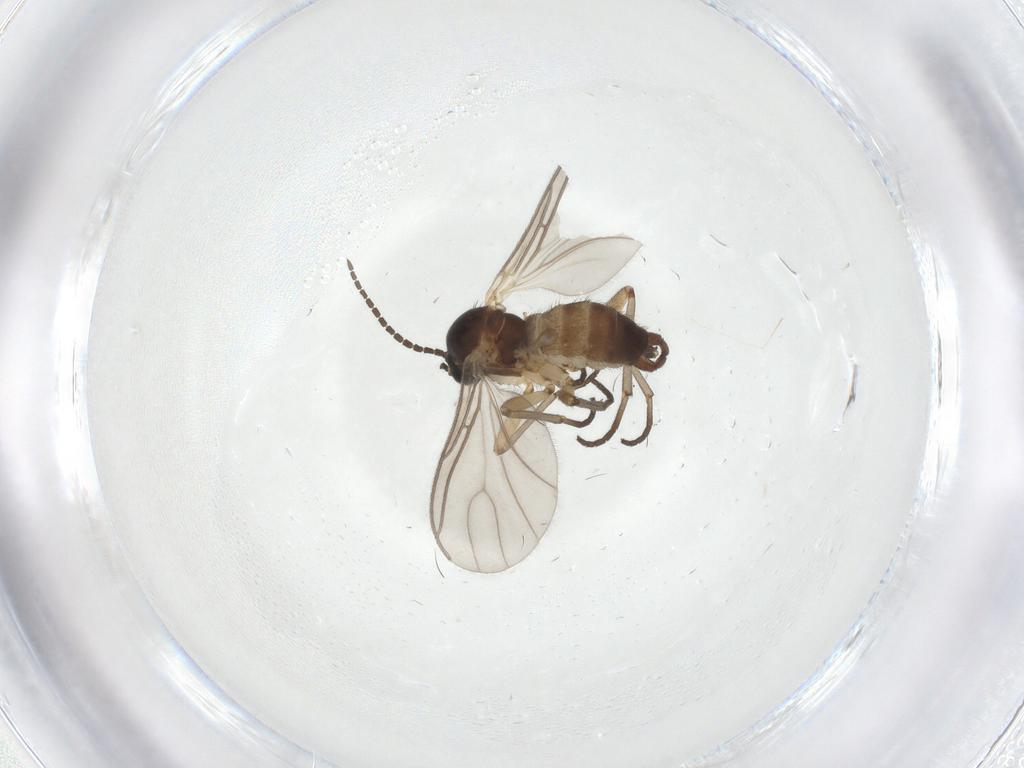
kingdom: Animalia
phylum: Arthropoda
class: Insecta
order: Diptera
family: Sciaridae
